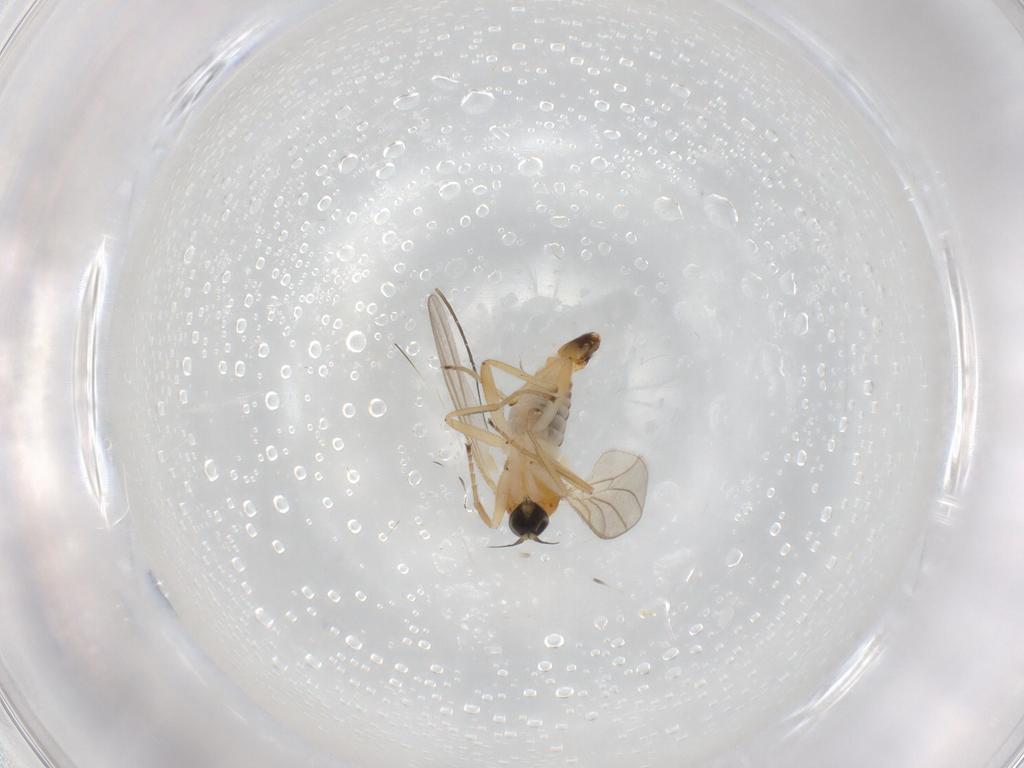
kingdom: Animalia
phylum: Arthropoda
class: Insecta
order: Diptera
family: Hybotidae
